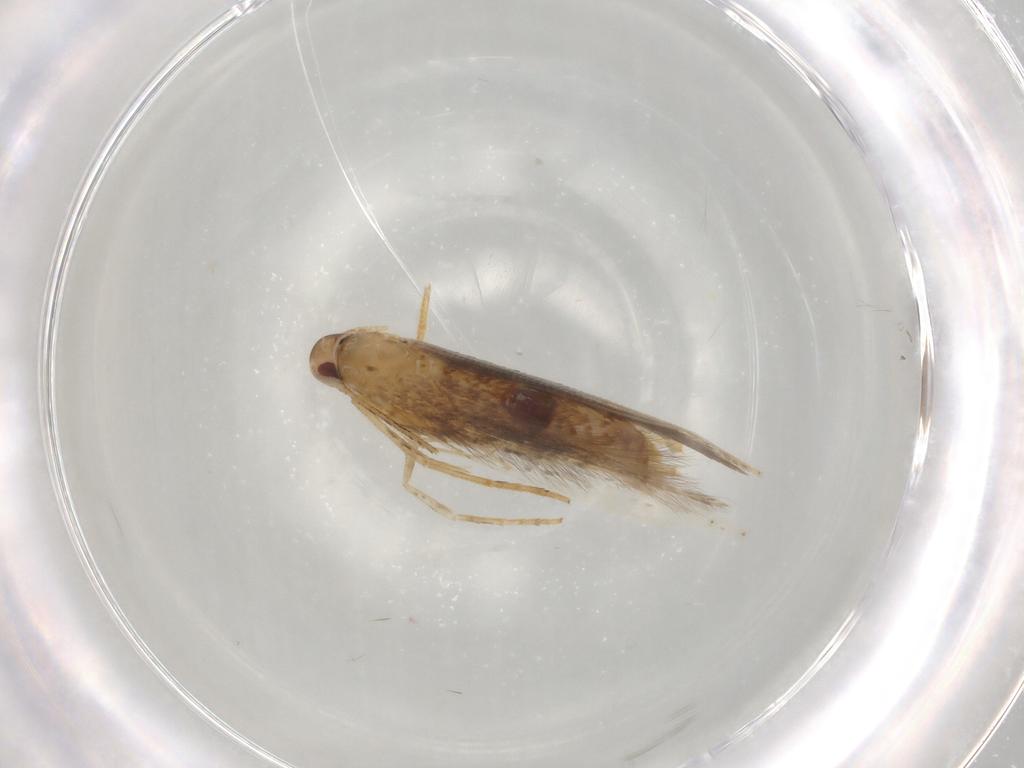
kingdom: Animalia
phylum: Arthropoda
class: Insecta
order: Lepidoptera
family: Cosmopterigidae
